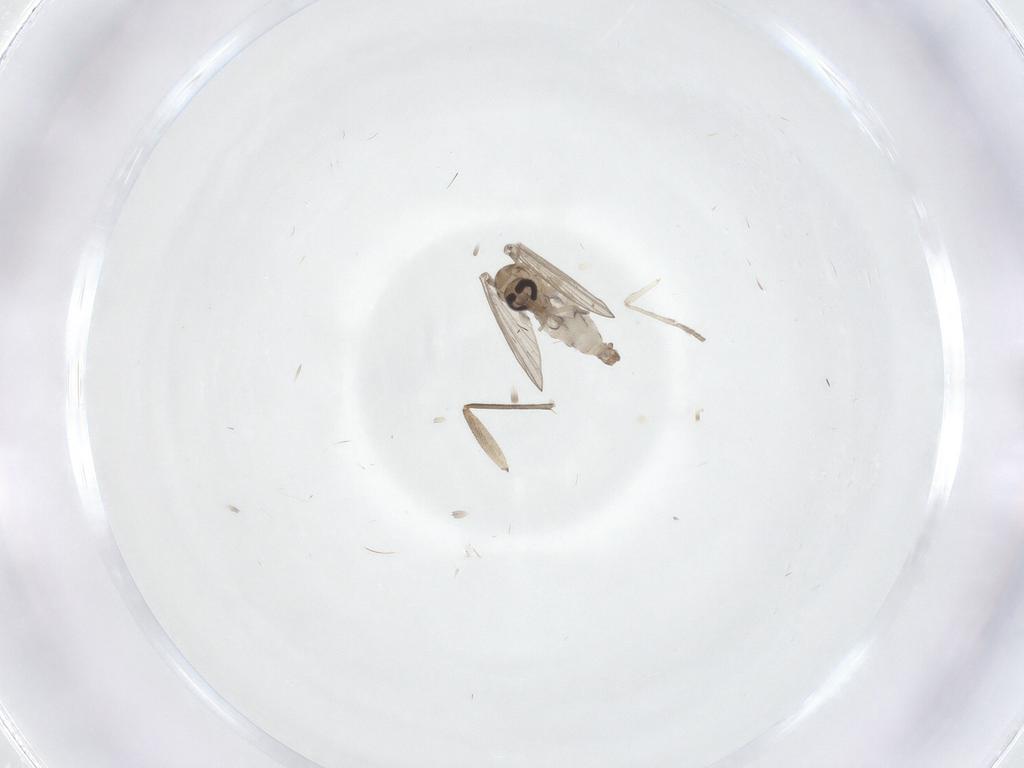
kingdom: Animalia
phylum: Arthropoda
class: Insecta
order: Diptera
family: Psychodidae
